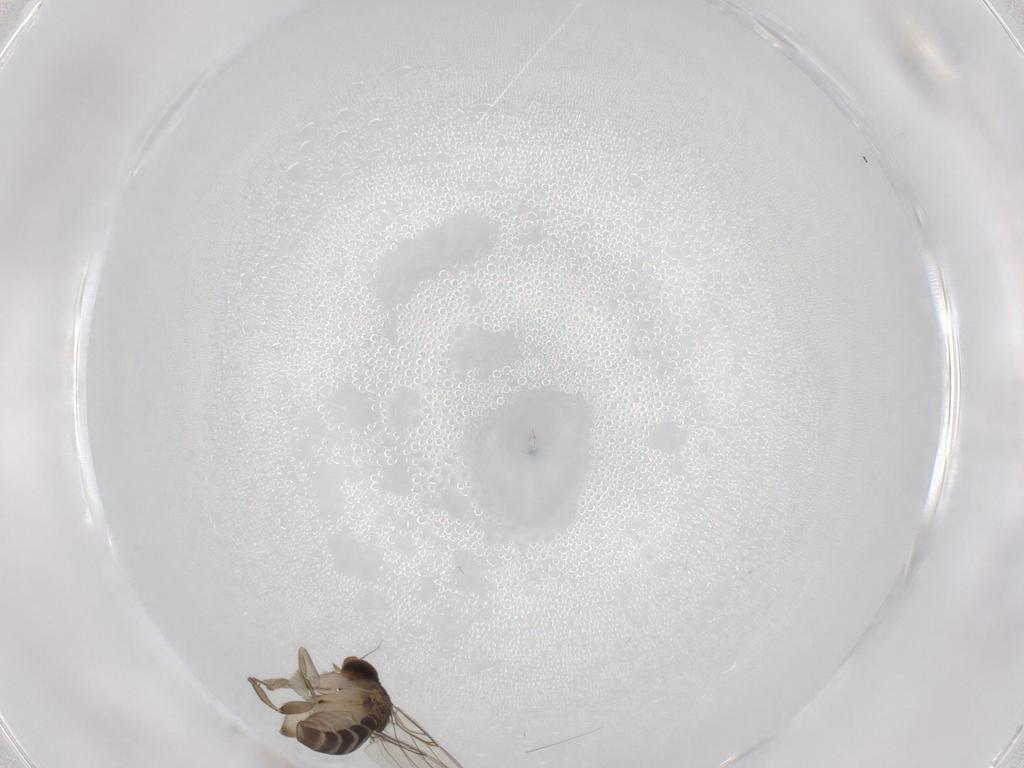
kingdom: Animalia
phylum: Arthropoda
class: Insecta
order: Diptera
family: Phoridae
